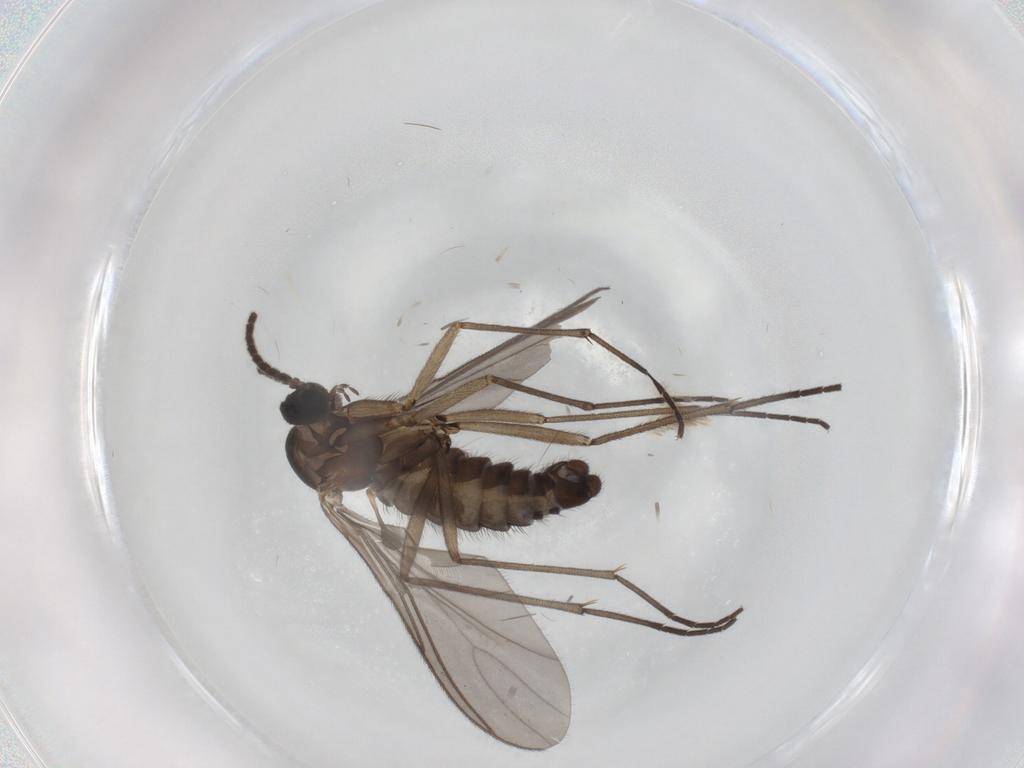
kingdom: Animalia
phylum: Arthropoda
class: Insecta
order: Diptera
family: Sciaridae
